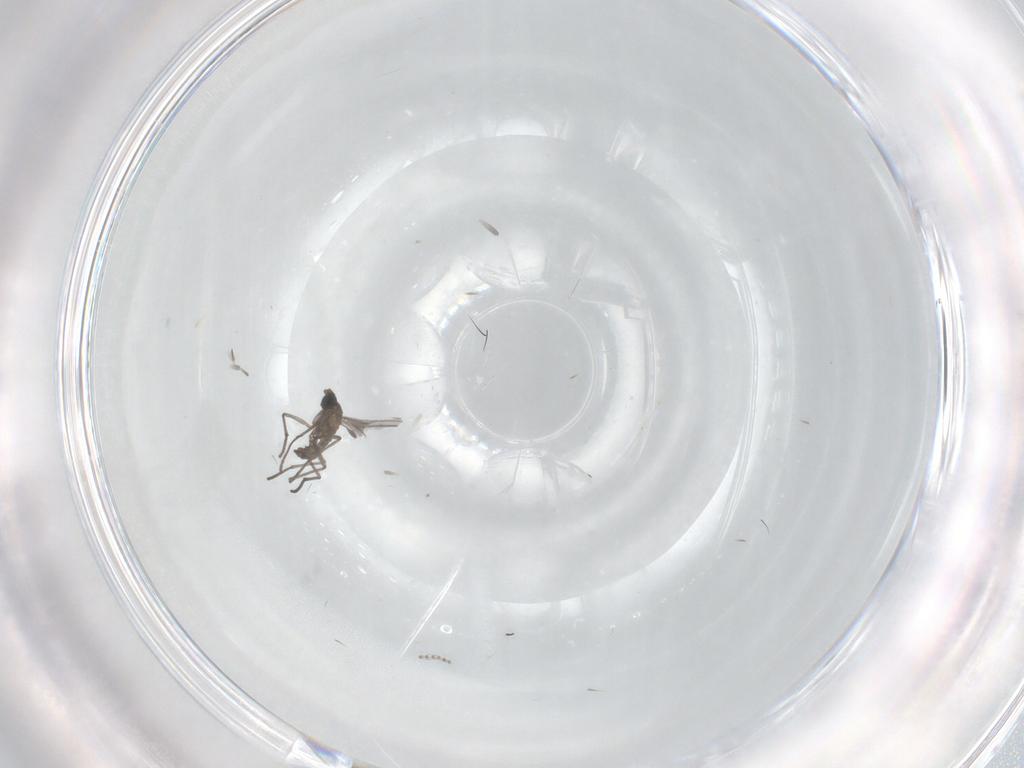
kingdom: Animalia
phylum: Arthropoda
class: Insecta
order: Diptera
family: Sciaridae
